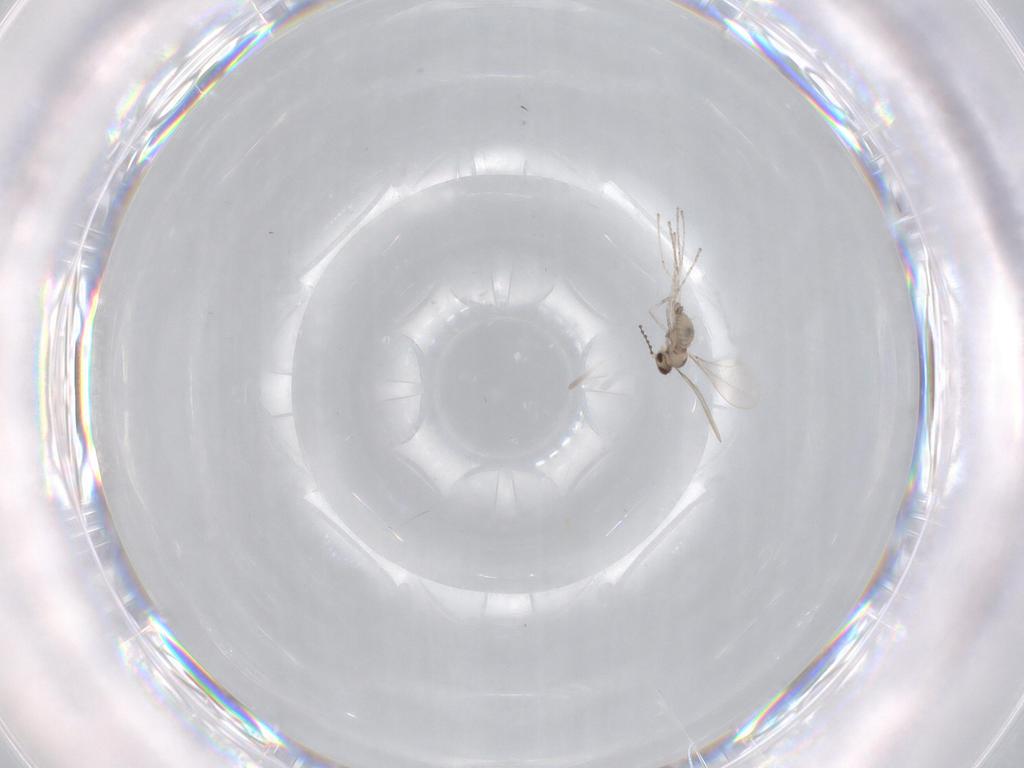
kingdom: Animalia
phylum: Arthropoda
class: Insecta
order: Diptera
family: Cecidomyiidae
